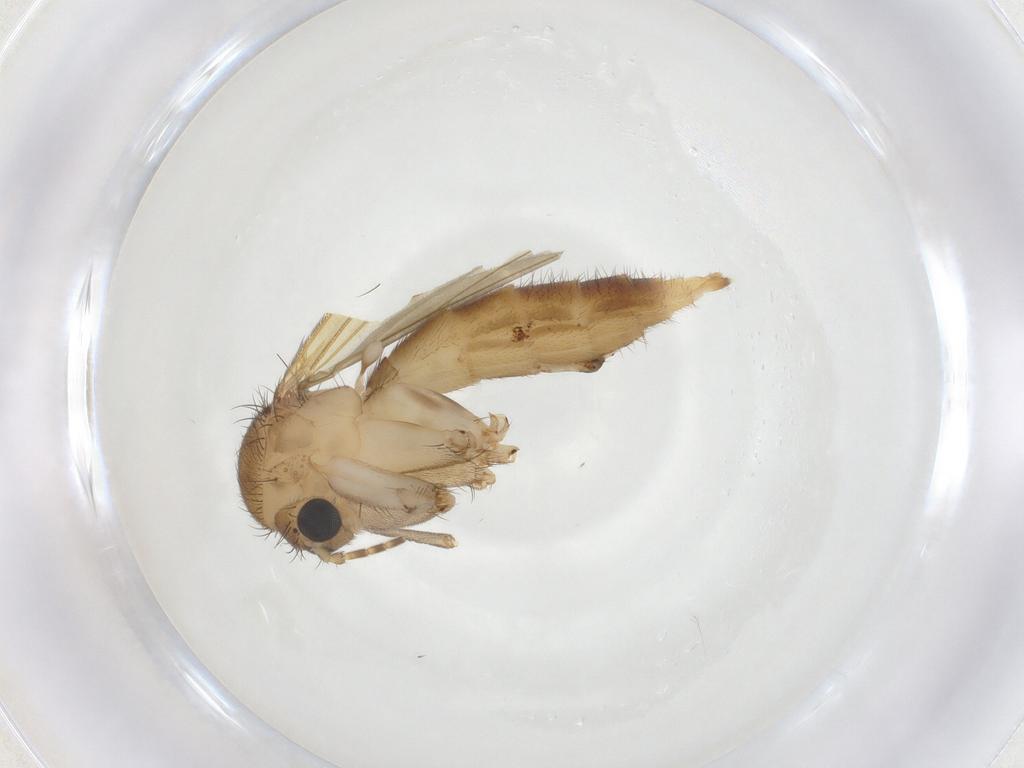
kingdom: Animalia
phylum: Arthropoda
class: Insecta
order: Diptera
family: Mycetophilidae
